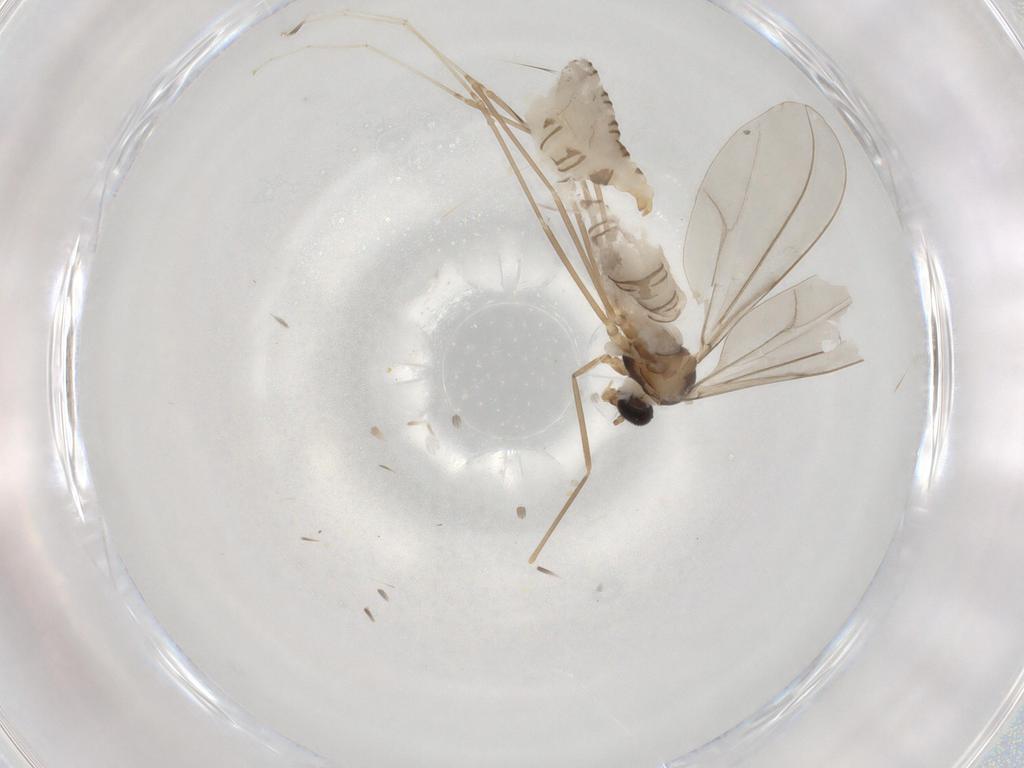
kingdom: Animalia
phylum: Arthropoda
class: Insecta
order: Diptera
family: Cecidomyiidae
